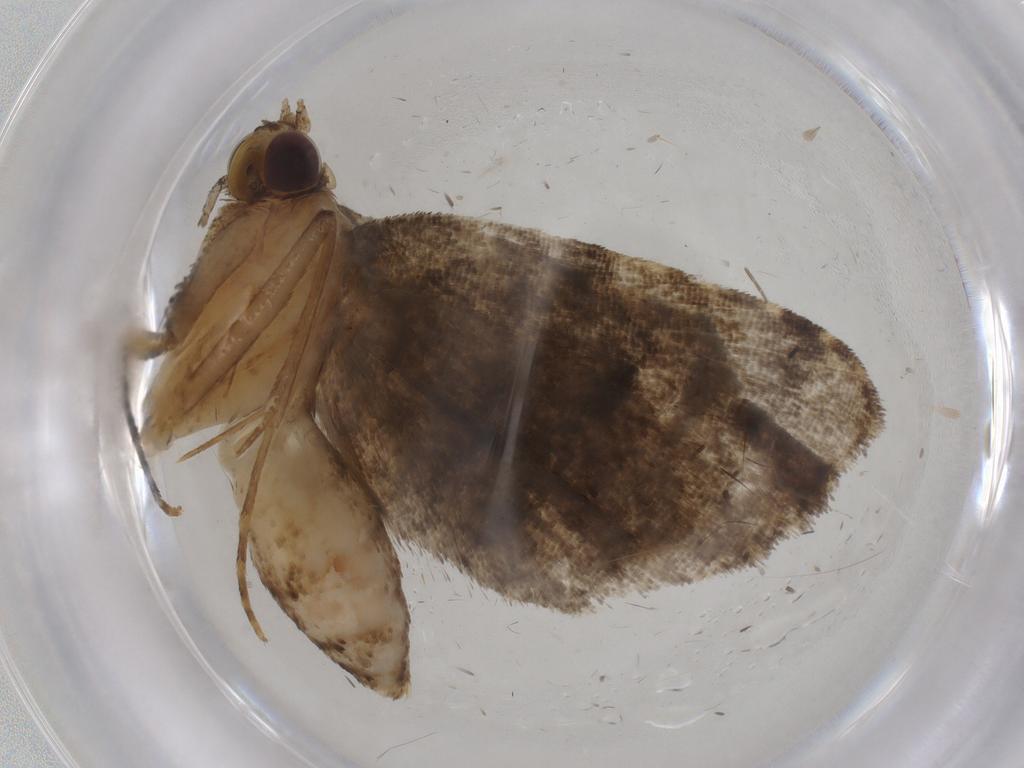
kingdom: Animalia
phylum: Arthropoda
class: Insecta
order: Lepidoptera
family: Erebidae
